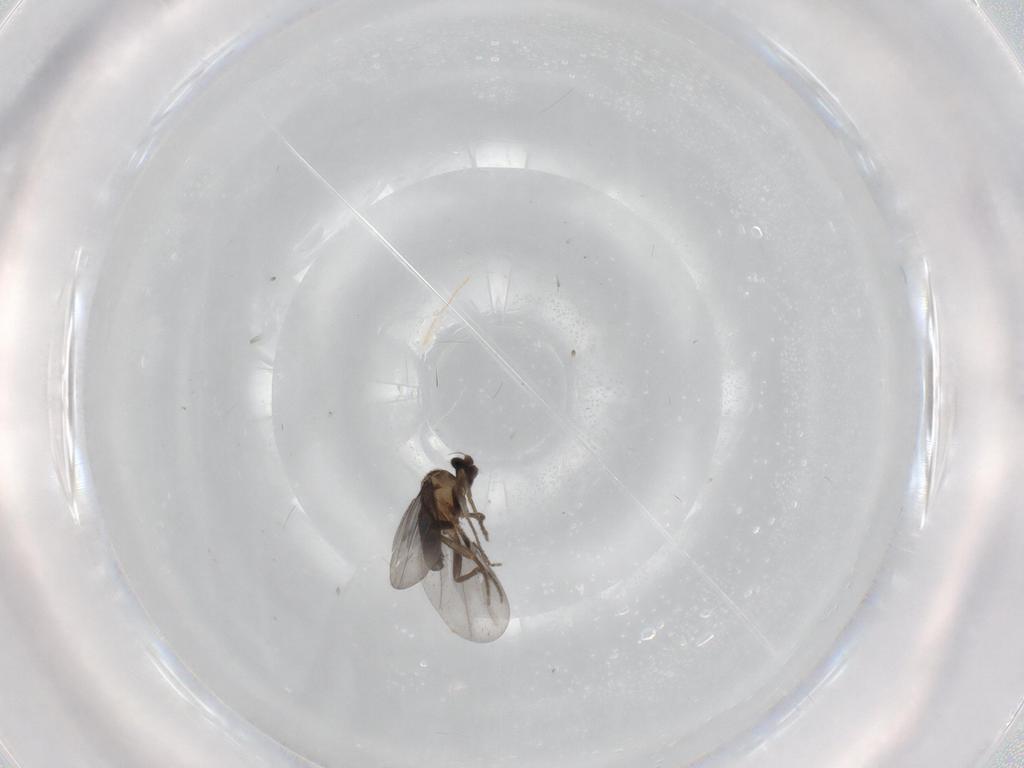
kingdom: Animalia
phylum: Arthropoda
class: Insecta
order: Diptera
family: Phoridae
